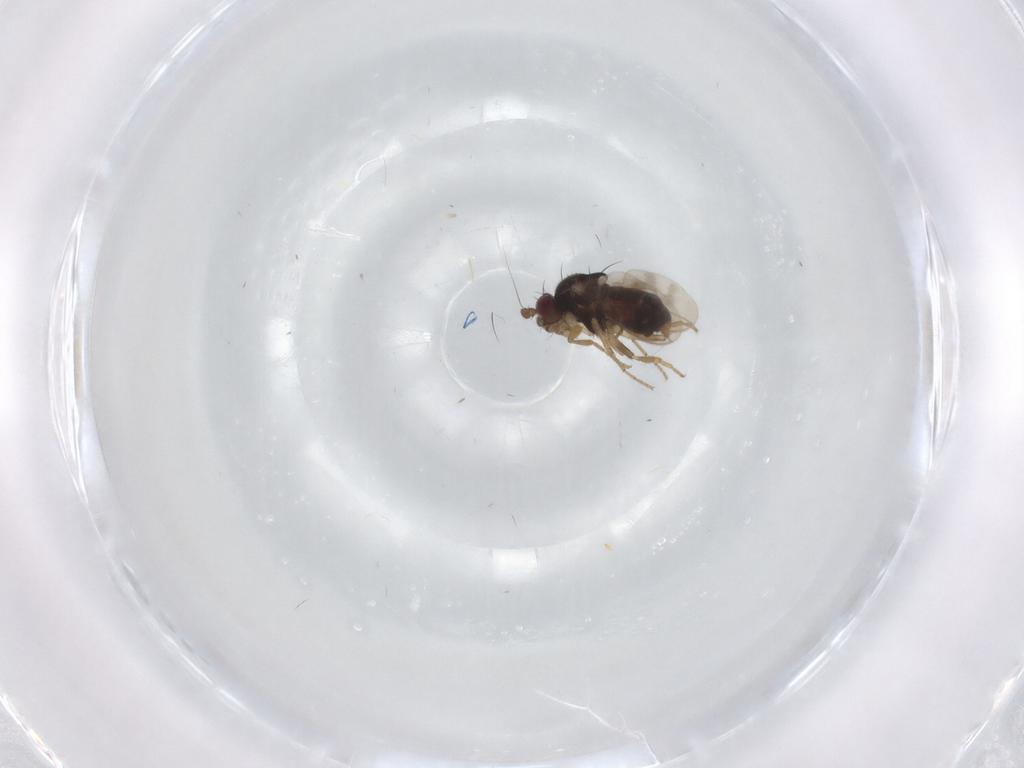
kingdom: Animalia
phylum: Arthropoda
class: Insecta
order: Diptera
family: Sphaeroceridae
